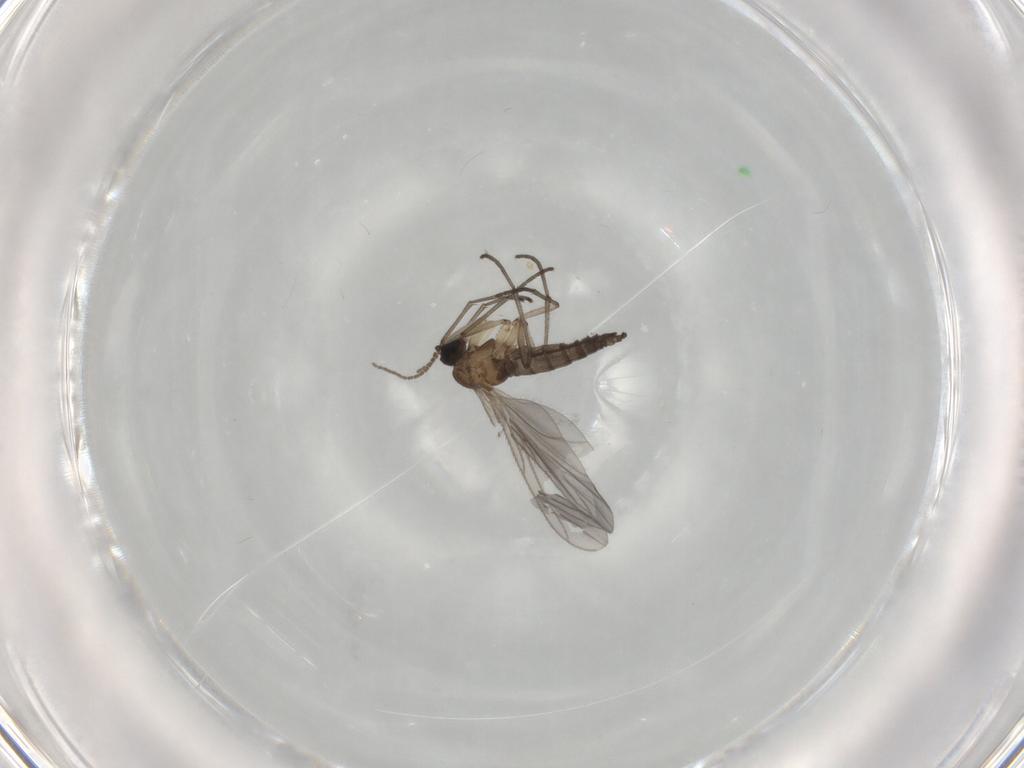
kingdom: Animalia
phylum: Arthropoda
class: Insecta
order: Diptera
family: Sciaridae
